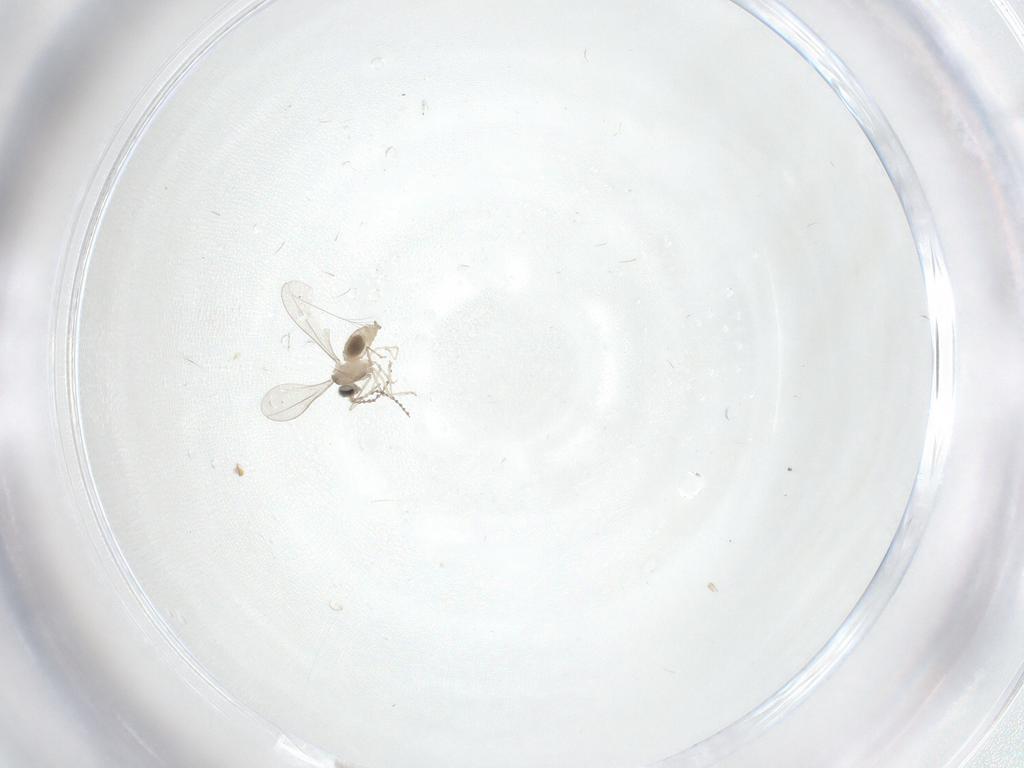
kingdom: Animalia
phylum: Arthropoda
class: Insecta
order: Diptera
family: Cecidomyiidae
